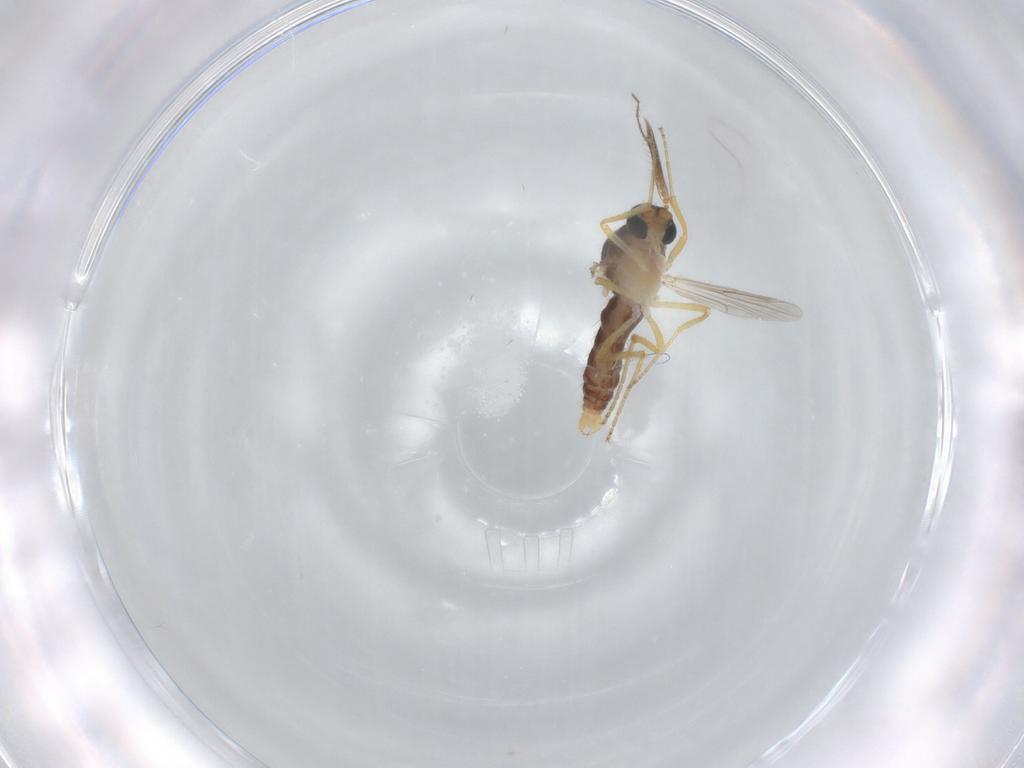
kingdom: Animalia
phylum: Arthropoda
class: Insecta
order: Diptera
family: Ceratopogonidae
